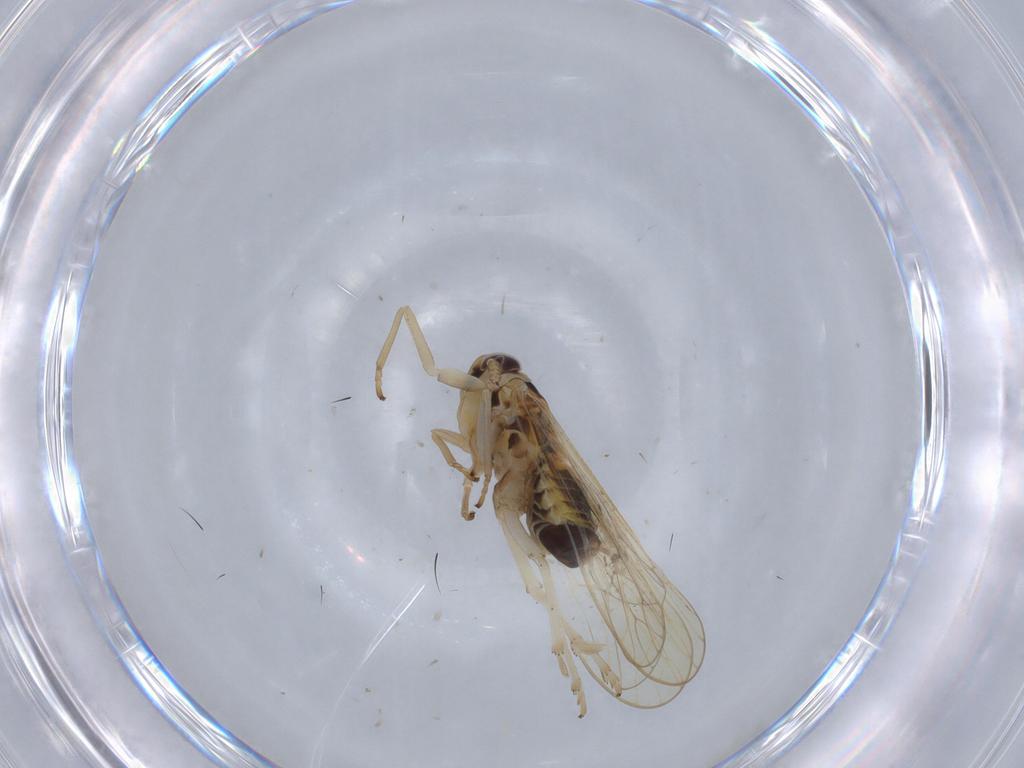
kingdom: Animalia
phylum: Arthropoda
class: Insecta
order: Hemiptera
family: Delphacidae
